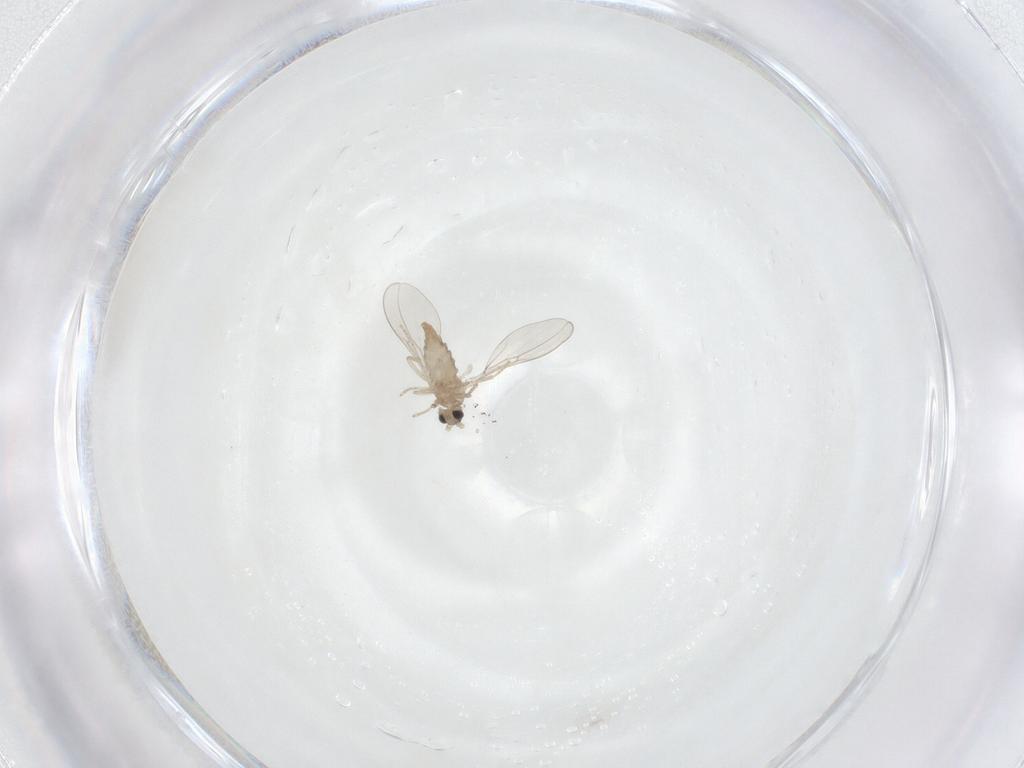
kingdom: Animalia
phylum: Arthropoda
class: Insecta
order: Diptera
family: Cecidomyiidae
